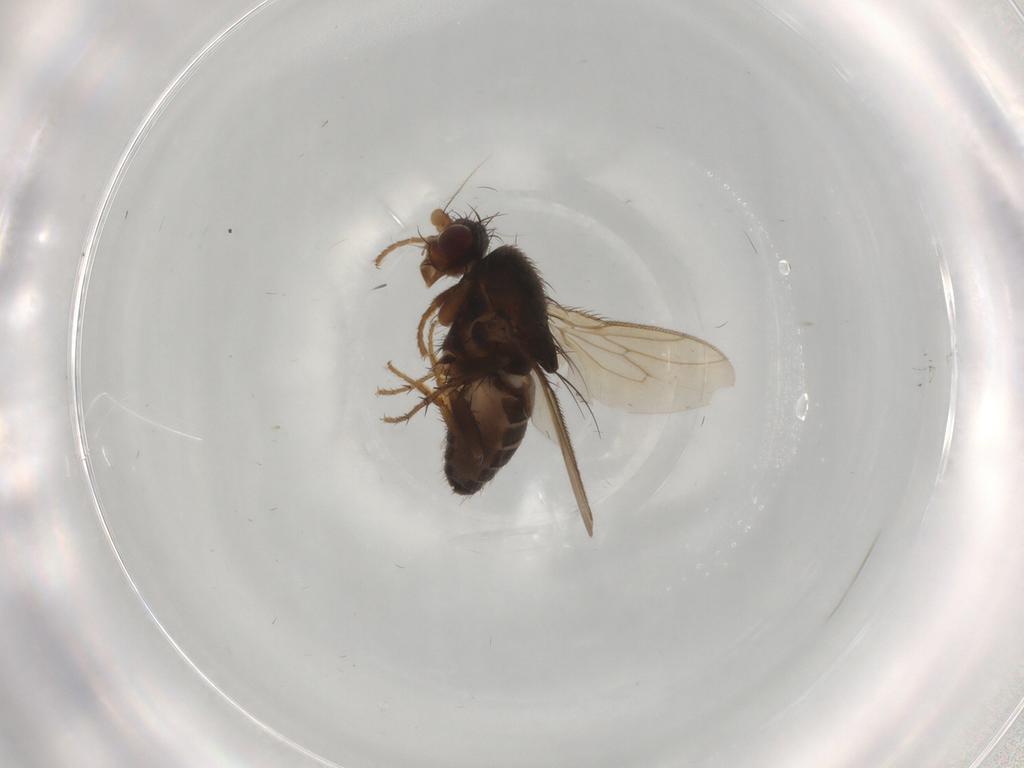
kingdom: Animalia
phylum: Arthropoda
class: Insecta
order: Diptera
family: Chironomidae
